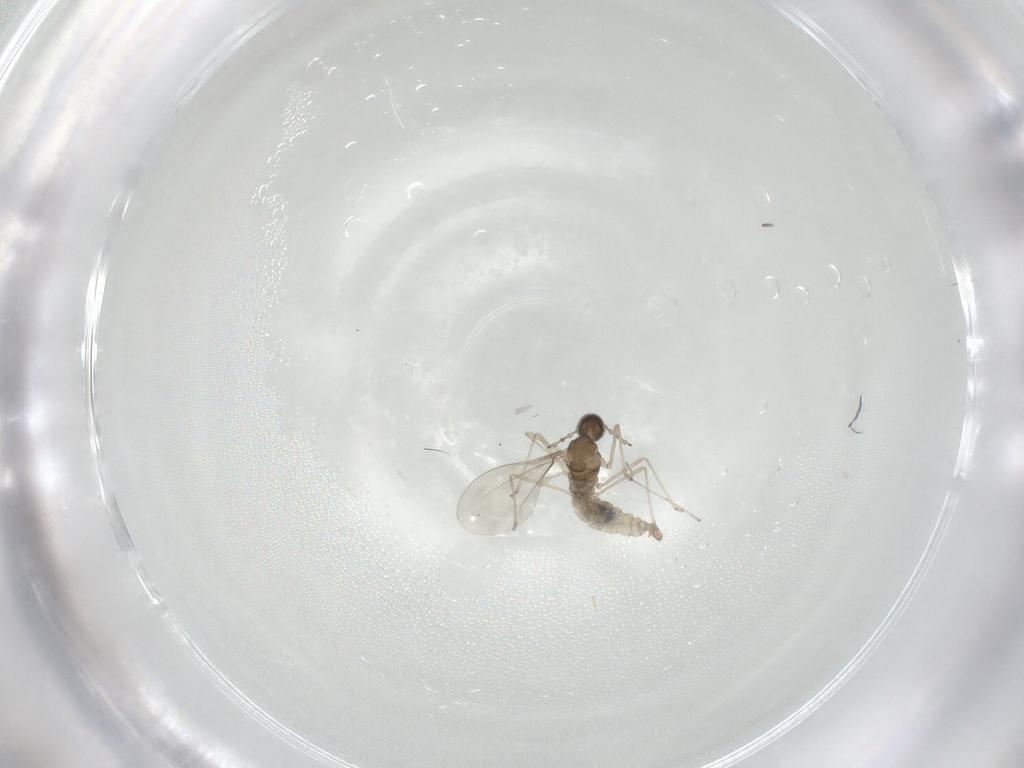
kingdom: Animalia
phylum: Arthropoda
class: Insecta
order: Diptera
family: Cecidomyiidae
